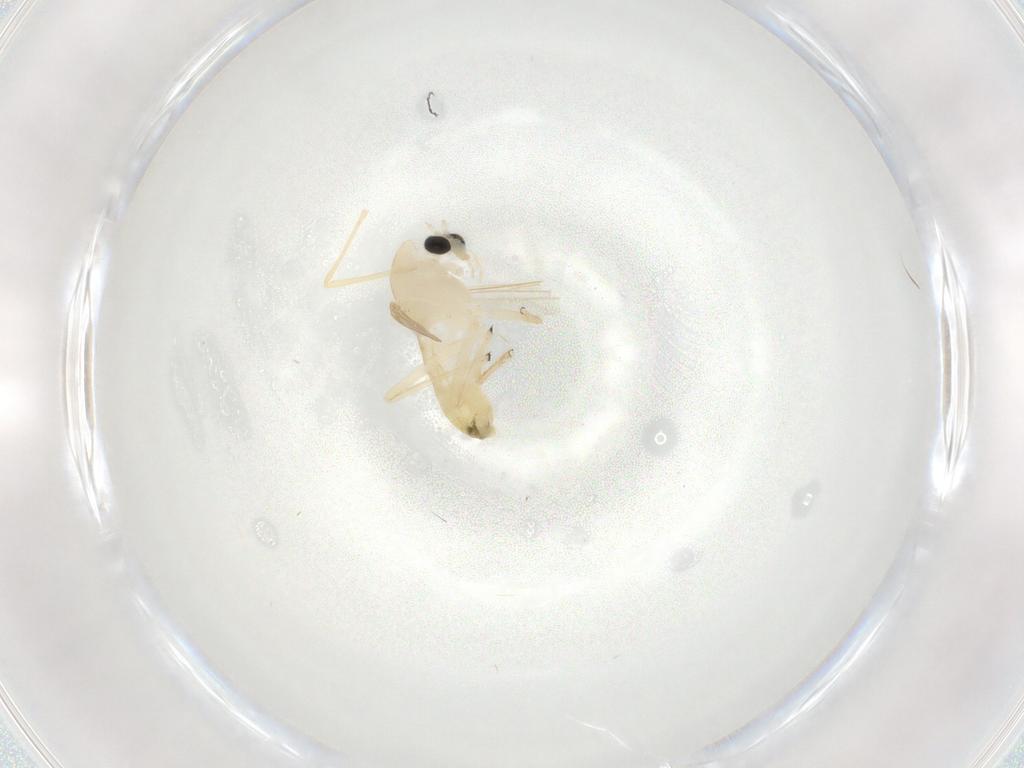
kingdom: Animalia
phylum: Arthropoda
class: Insecta
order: Diptera
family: Chironomidae
